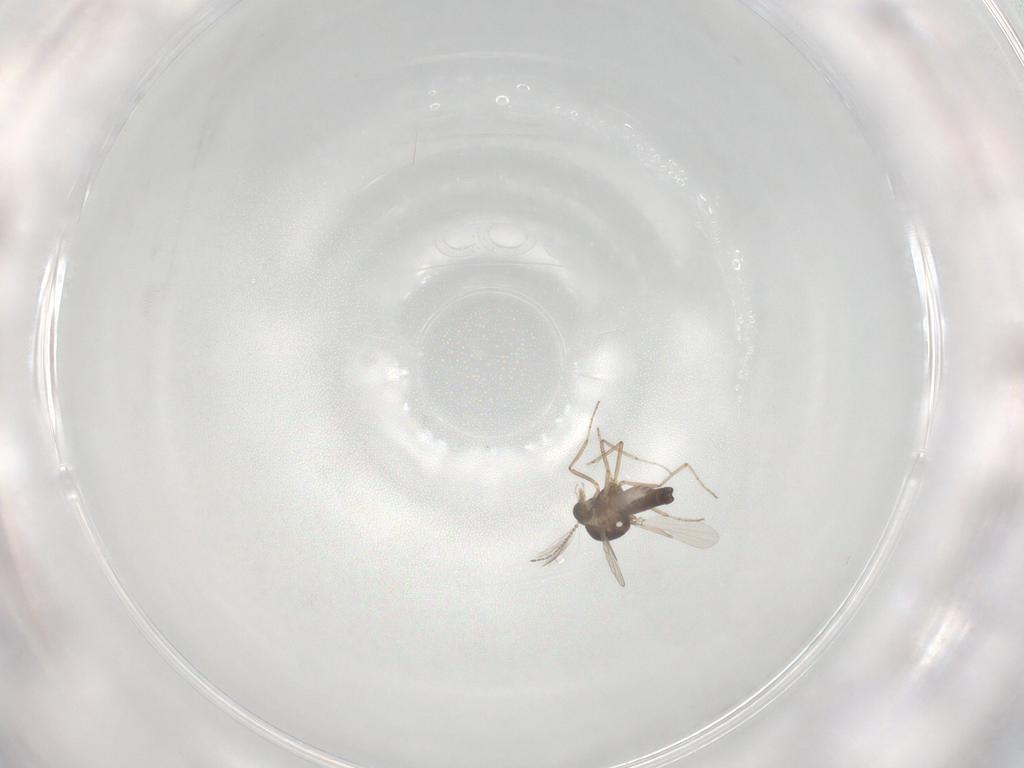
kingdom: Animalia
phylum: Arthropoda
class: Insecta
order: Diptera
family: Ceratopogonidae
